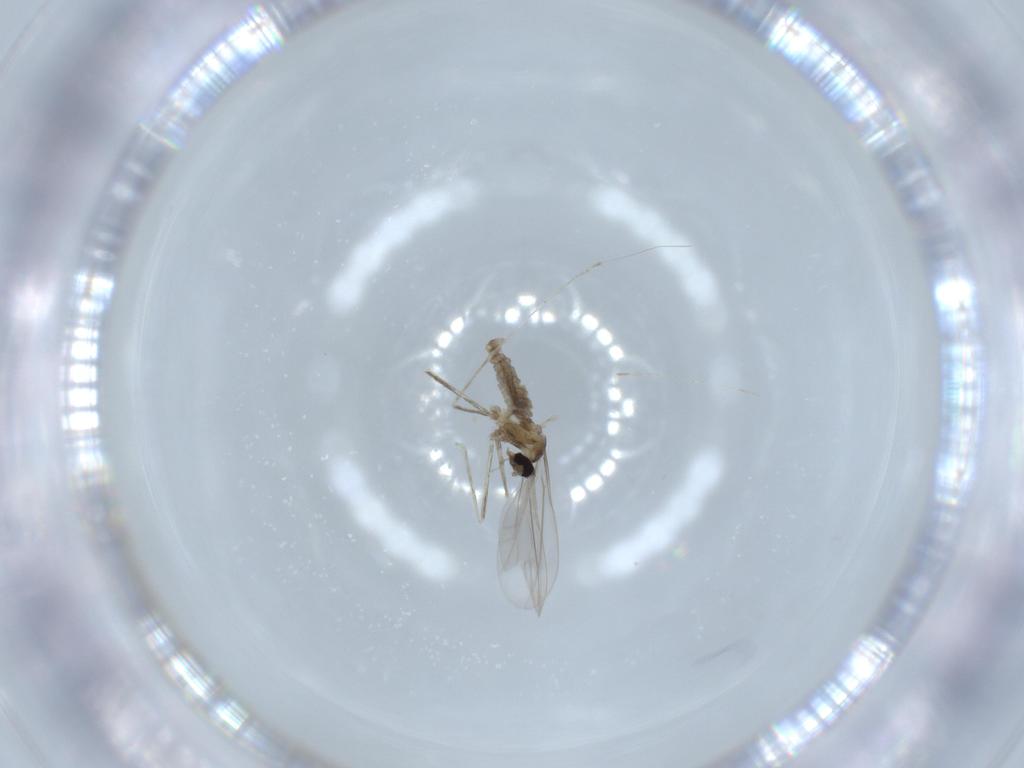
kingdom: Animalia
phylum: Arthropoda
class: Insecta
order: Diptera
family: Cecidomyiidae
